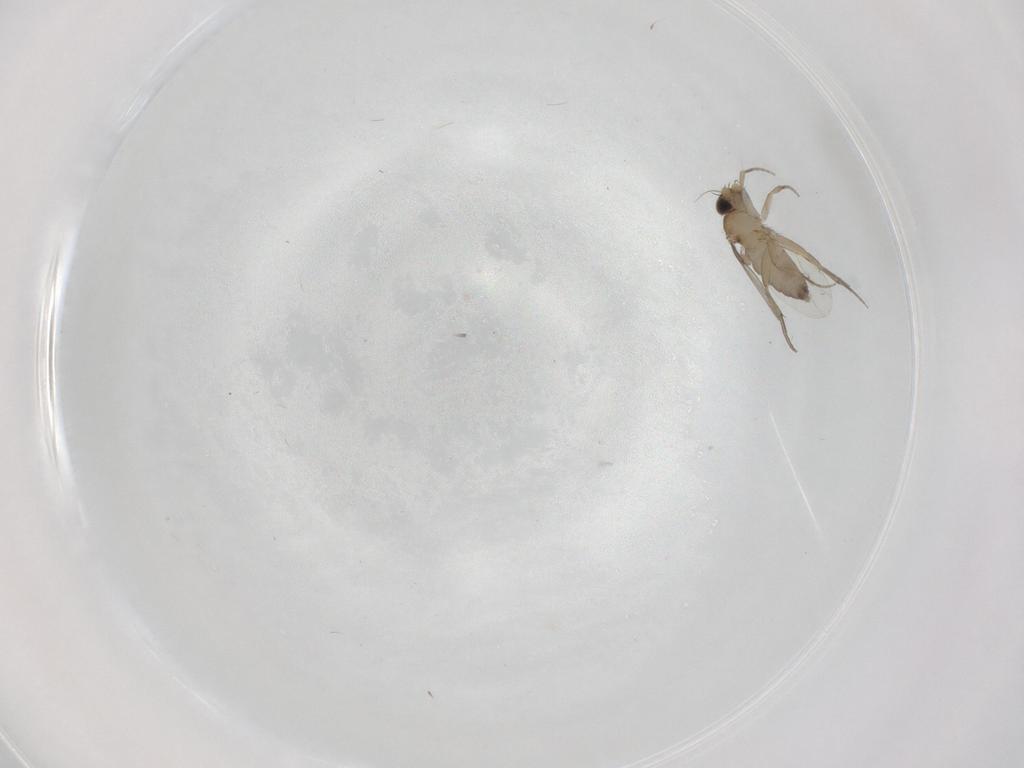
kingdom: Animalia
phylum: Arthropoda
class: Insecta
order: Diptera
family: Phoridae
